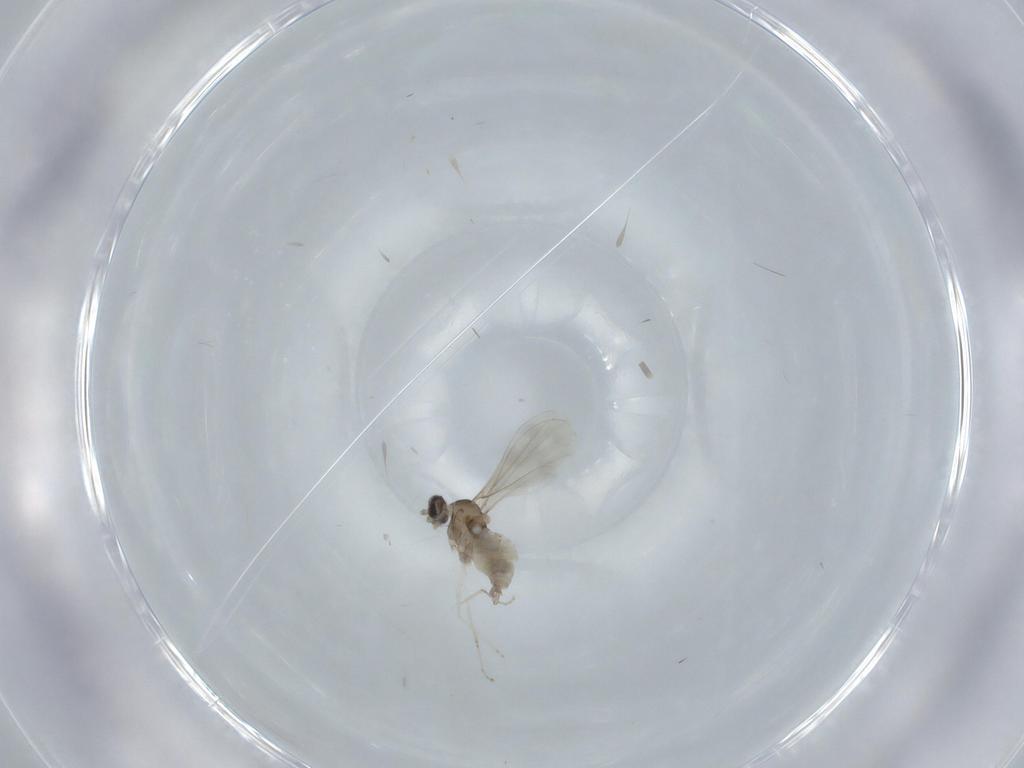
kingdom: Animalia
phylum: Arthropoda
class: Insecta
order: Diptera
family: Cecidomyiidae
